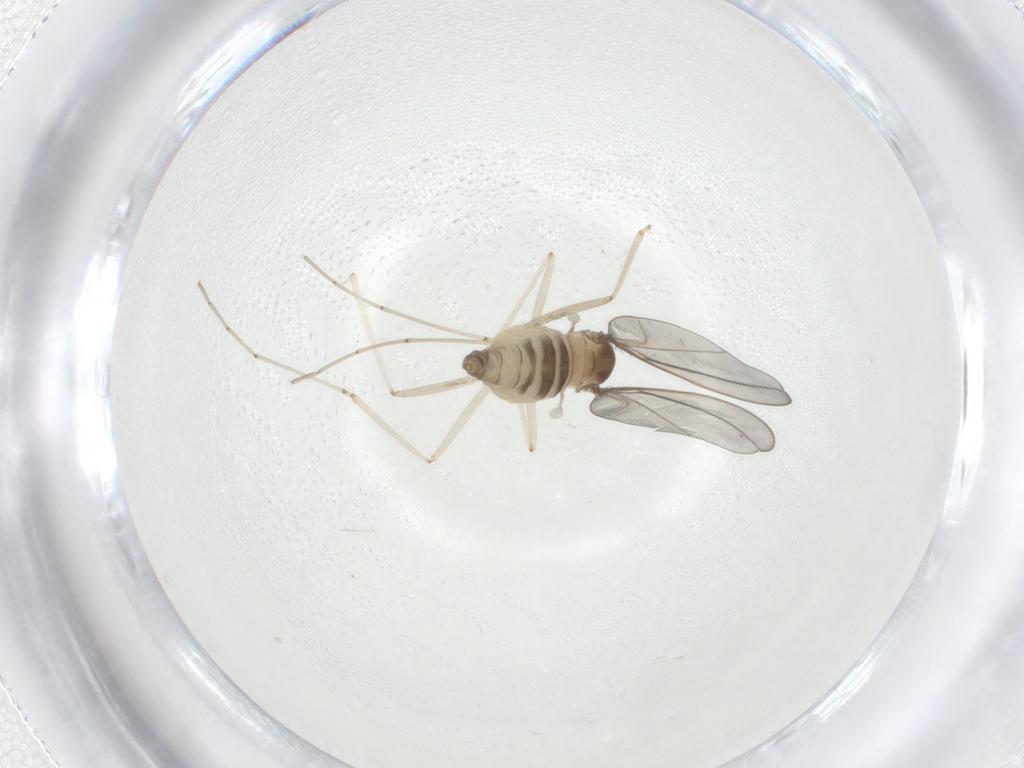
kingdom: Animalia
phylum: Arthropoda
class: Insecta
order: Diptera
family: Cecidomyiidae
